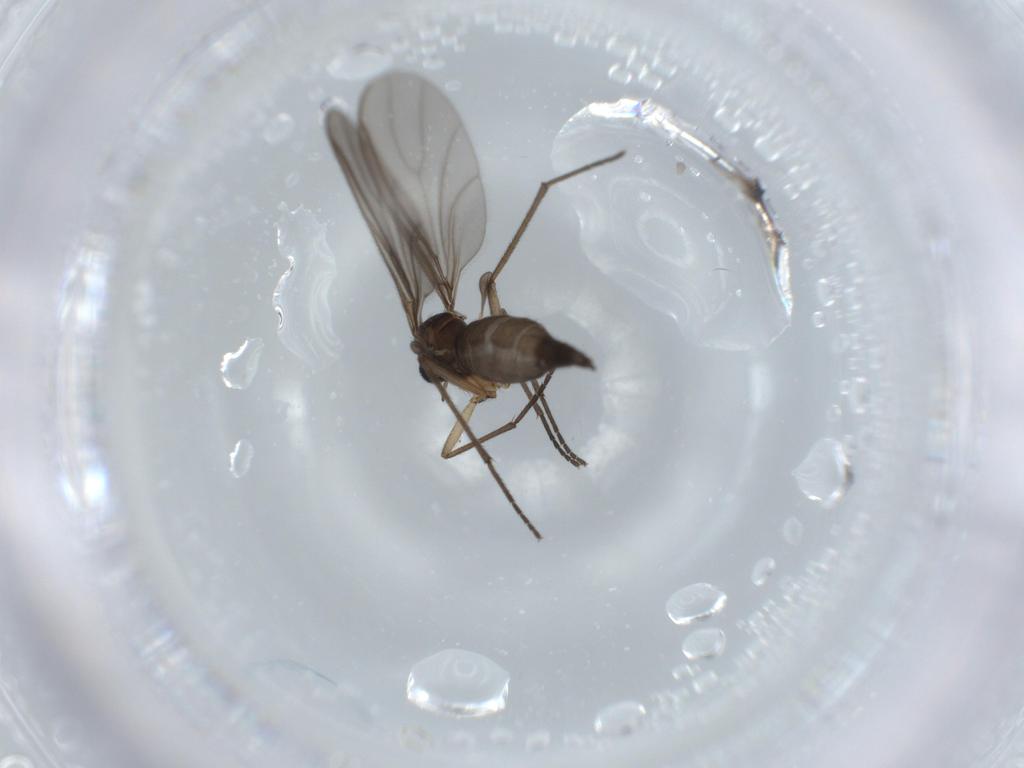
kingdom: Animalia
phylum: Arthropoda
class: Insecta
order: Diptera
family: Sciaridae
